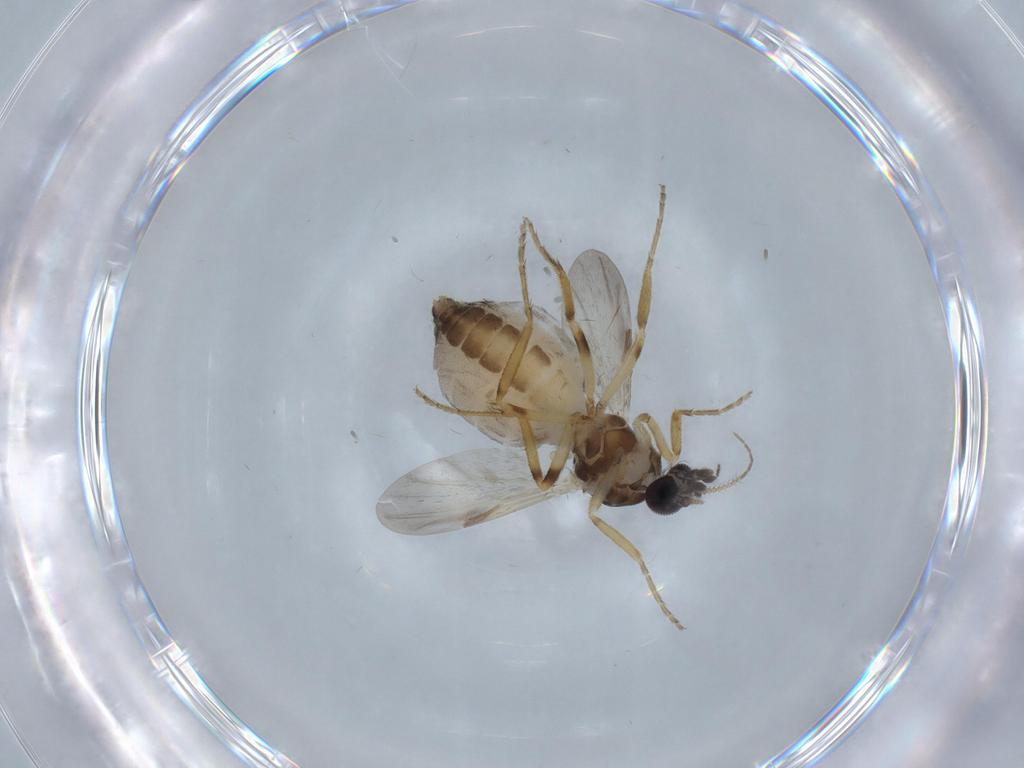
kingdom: Animalia
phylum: Arthropoda
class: Insecta
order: Diptera
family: Ceratopogonidae
